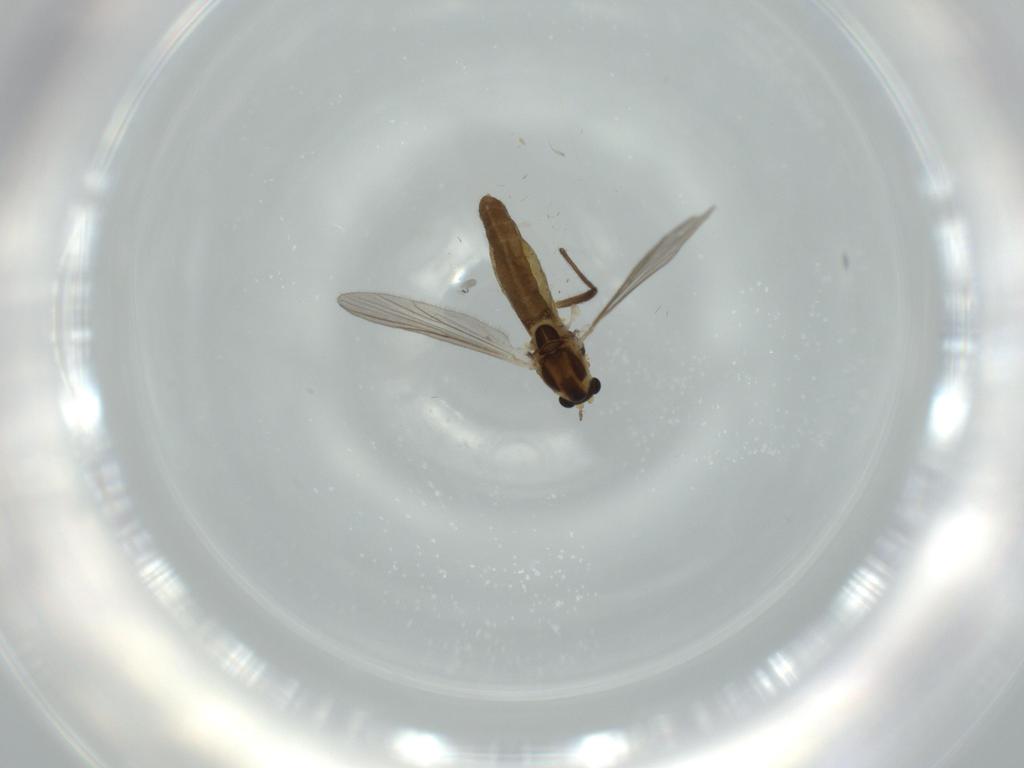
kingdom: Animalia
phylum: Arthropoda
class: Insecta
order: Diptera
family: Chironomidae
